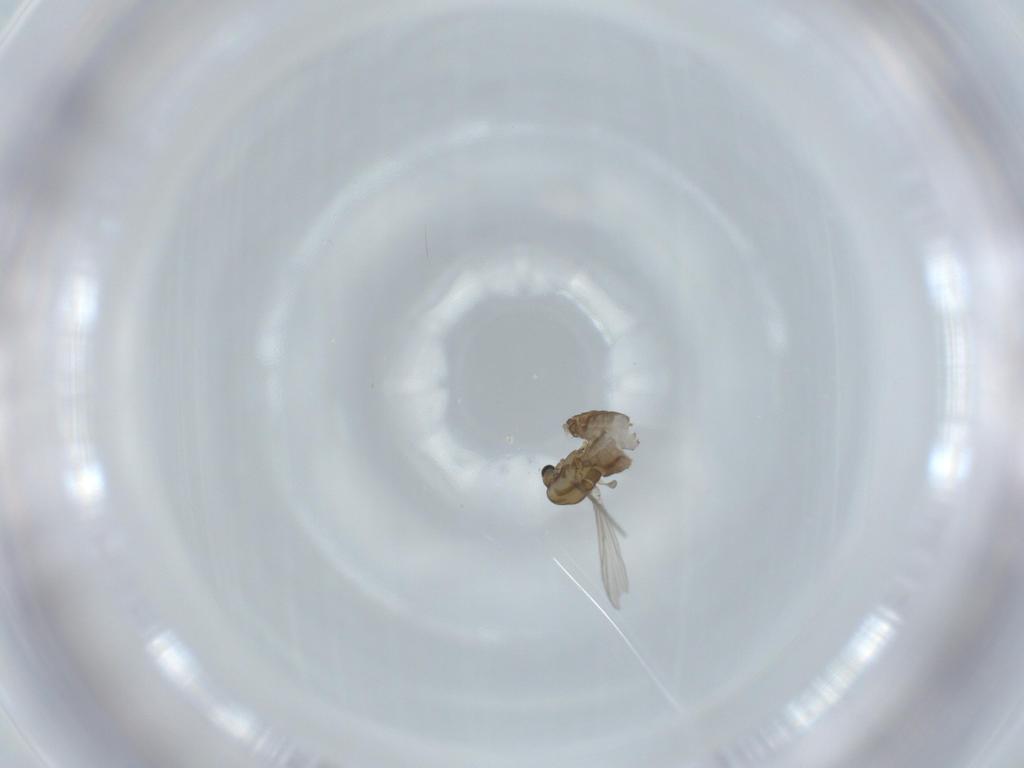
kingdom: Animalia
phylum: Arthropoda
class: Insecta
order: Diptera
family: Chironomidae
